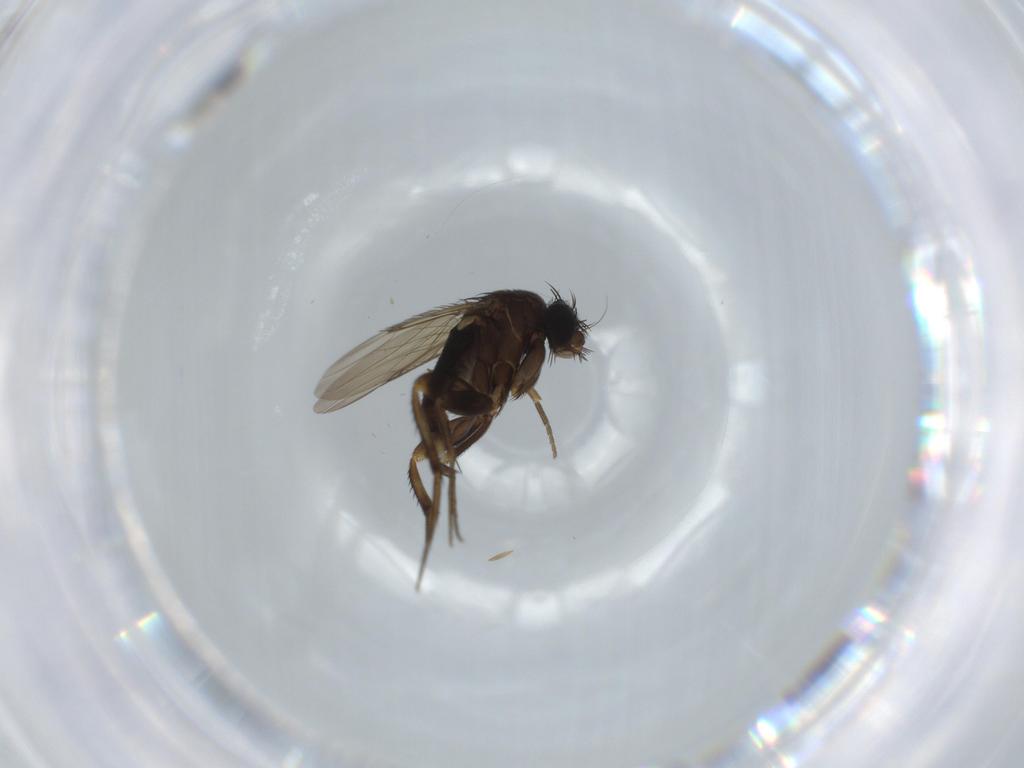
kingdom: Animalia
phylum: Arthropoda
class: Insecta
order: Diptera
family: Phoridae
